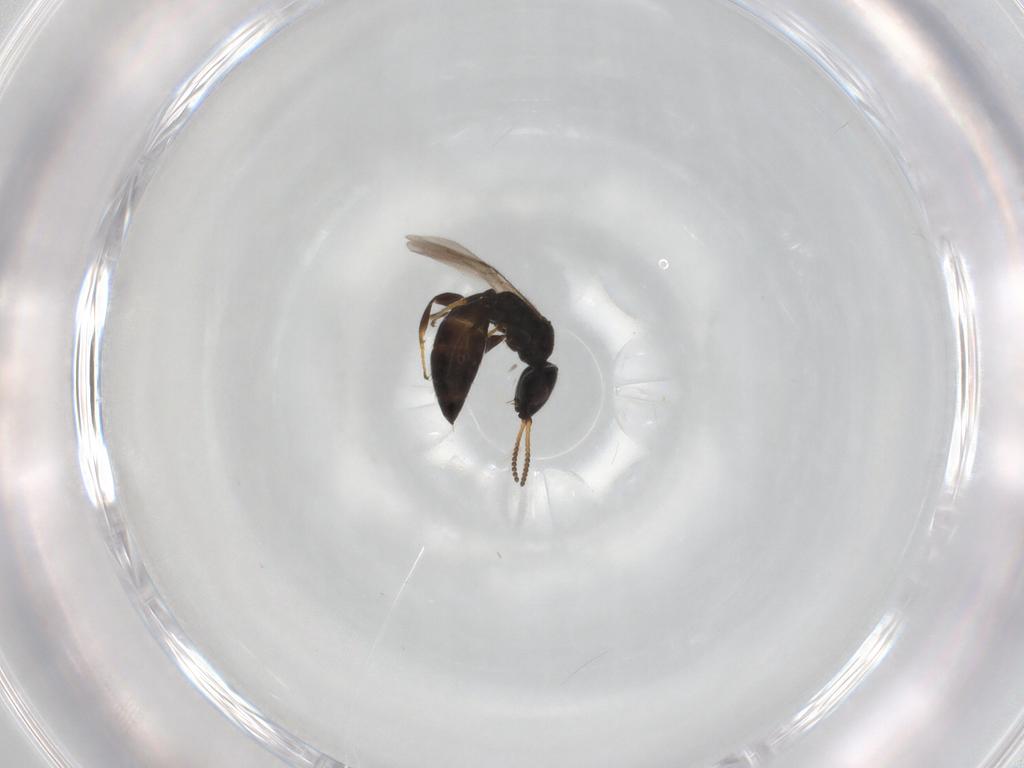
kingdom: Animalia
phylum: Arthropoda
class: Insecta
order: Hymenoptera
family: Bethylidae
